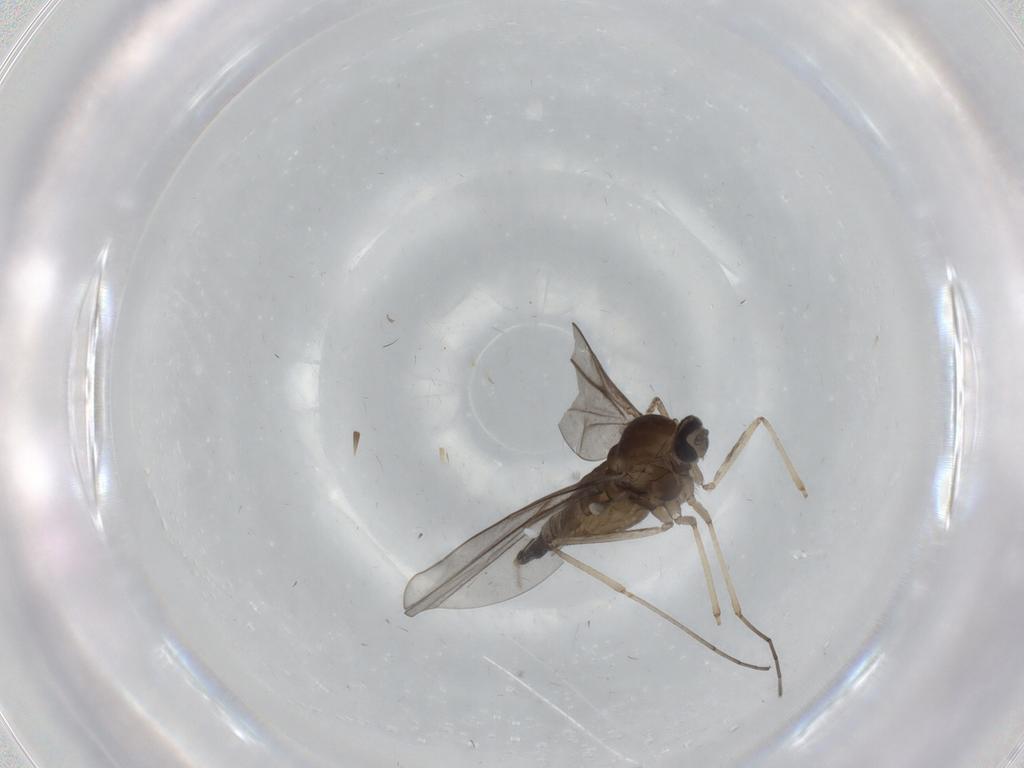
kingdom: Animalia
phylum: Arthropoda
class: Insecta
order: Diptera
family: Cecidomyiidae
